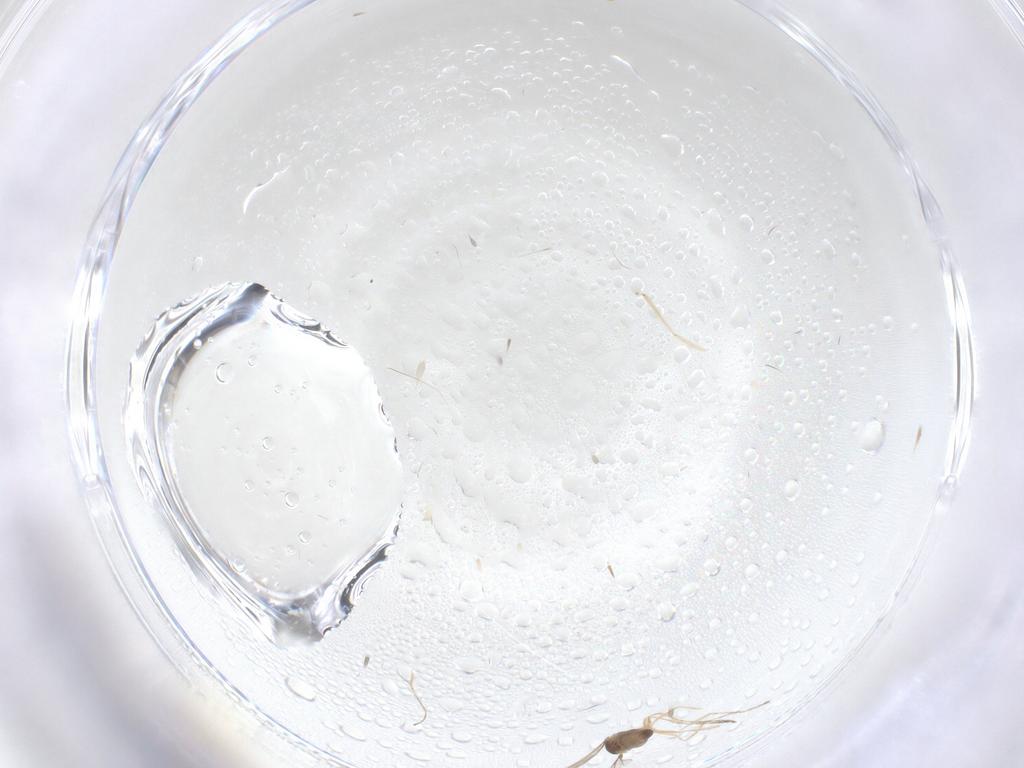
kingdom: Animalia
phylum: Arthropoda
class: Insecta
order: Diptera
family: Cecidomyiidae
